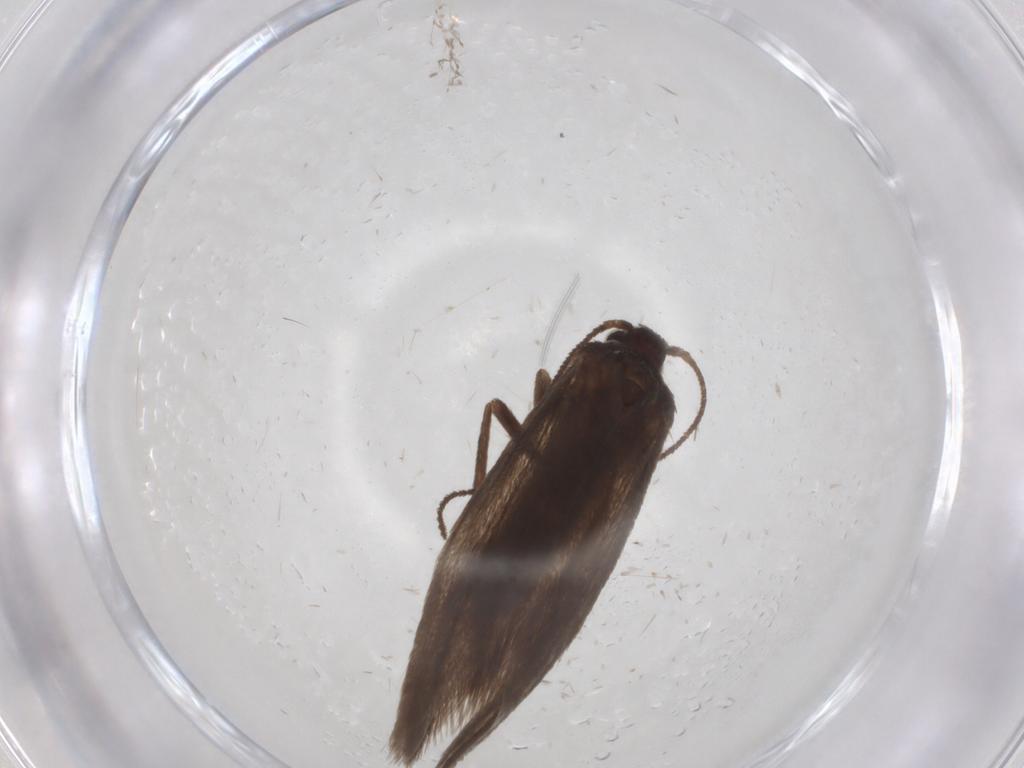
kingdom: Animalia
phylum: Arthropoda
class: Insecta
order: Lepidoptera
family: Limacodidae
